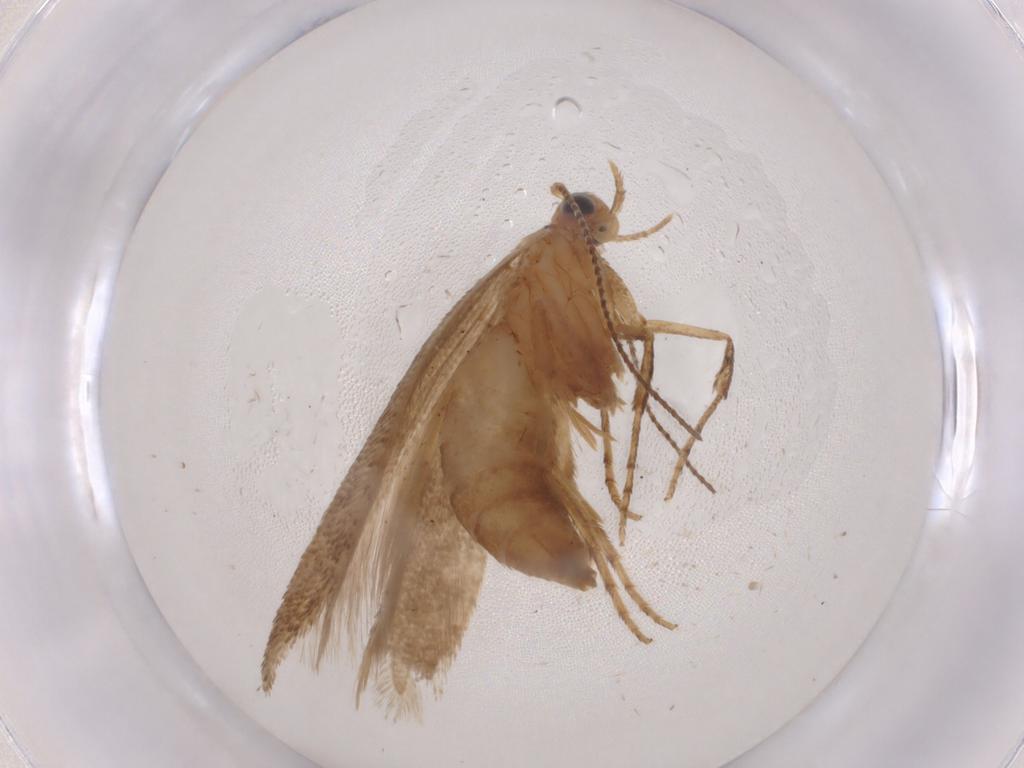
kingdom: Animalia
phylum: Arthropoda
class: Insecta
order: Lepidoptera
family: Argyresthiidae
